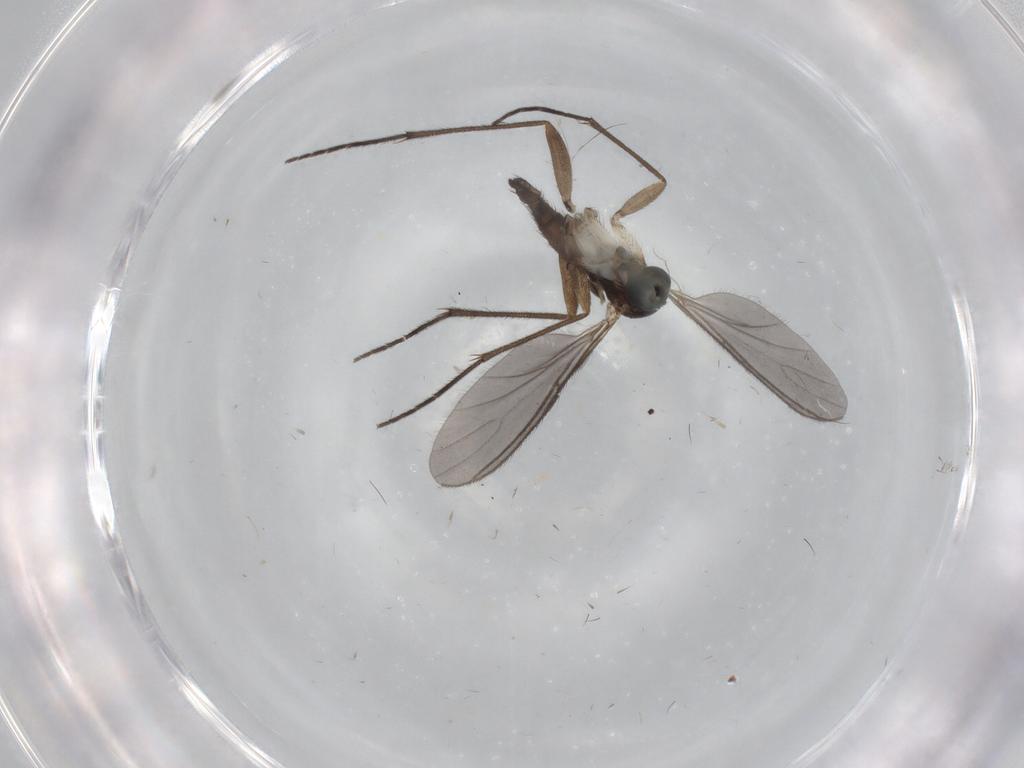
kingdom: Animalia
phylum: Arthropoda
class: Insecta
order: Diptera
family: Sciaridae
